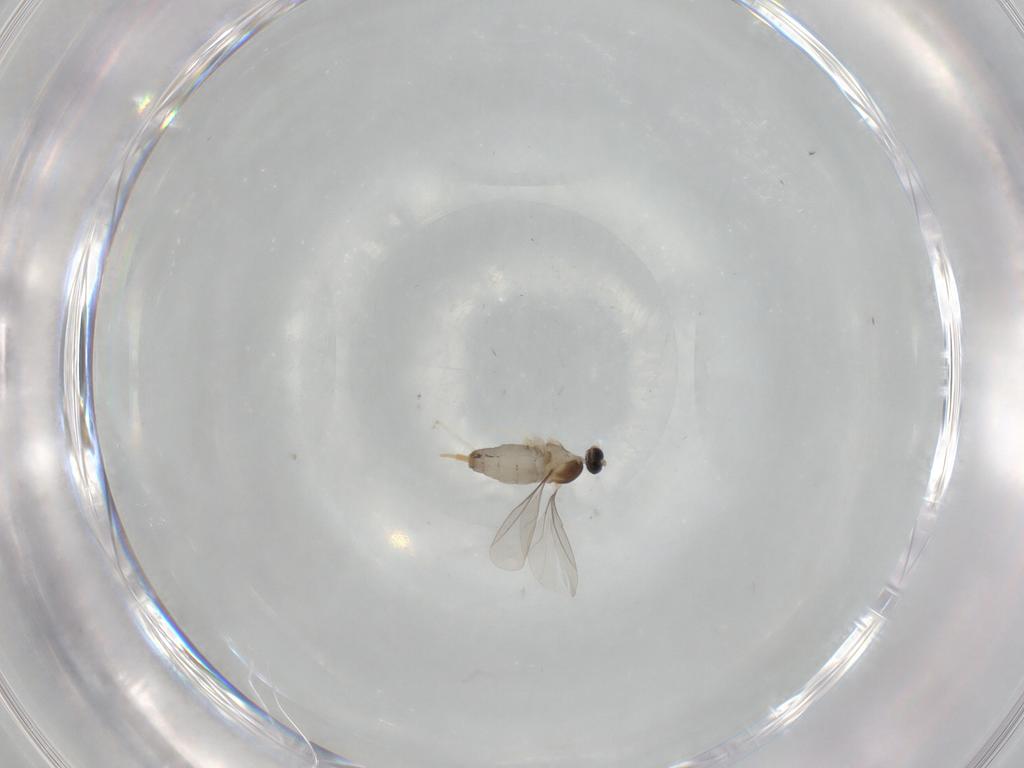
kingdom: Animalia
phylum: Arthropoda
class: Insecta
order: Diptera
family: Cecidomyiidae
